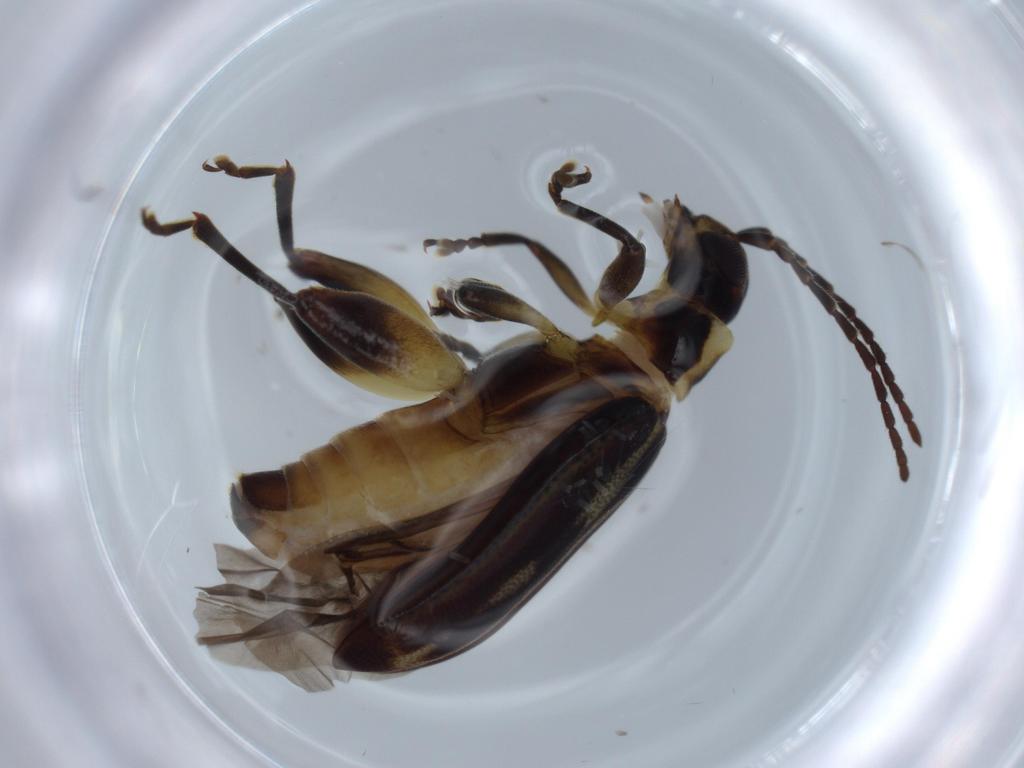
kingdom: Animalia
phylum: Arthropoda
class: Insecta
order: Coleoptera
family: Chrysomelidae
